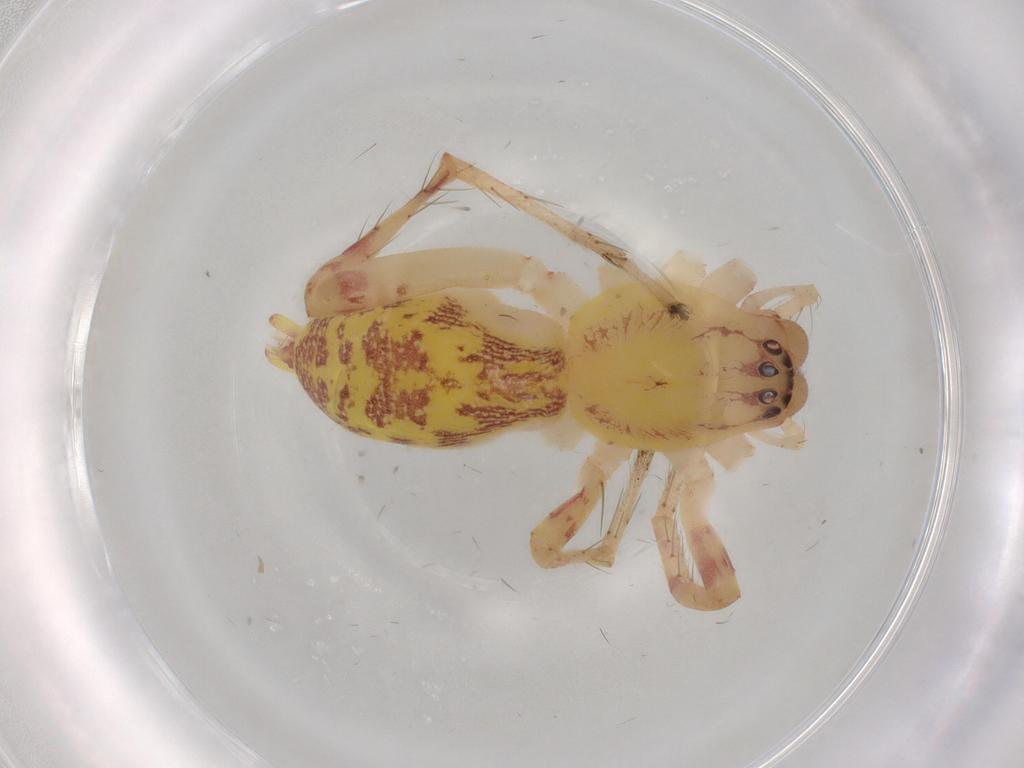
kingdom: Animalia
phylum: Arthropoda
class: Arachnida
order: Araneae
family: Anyphaenidae
